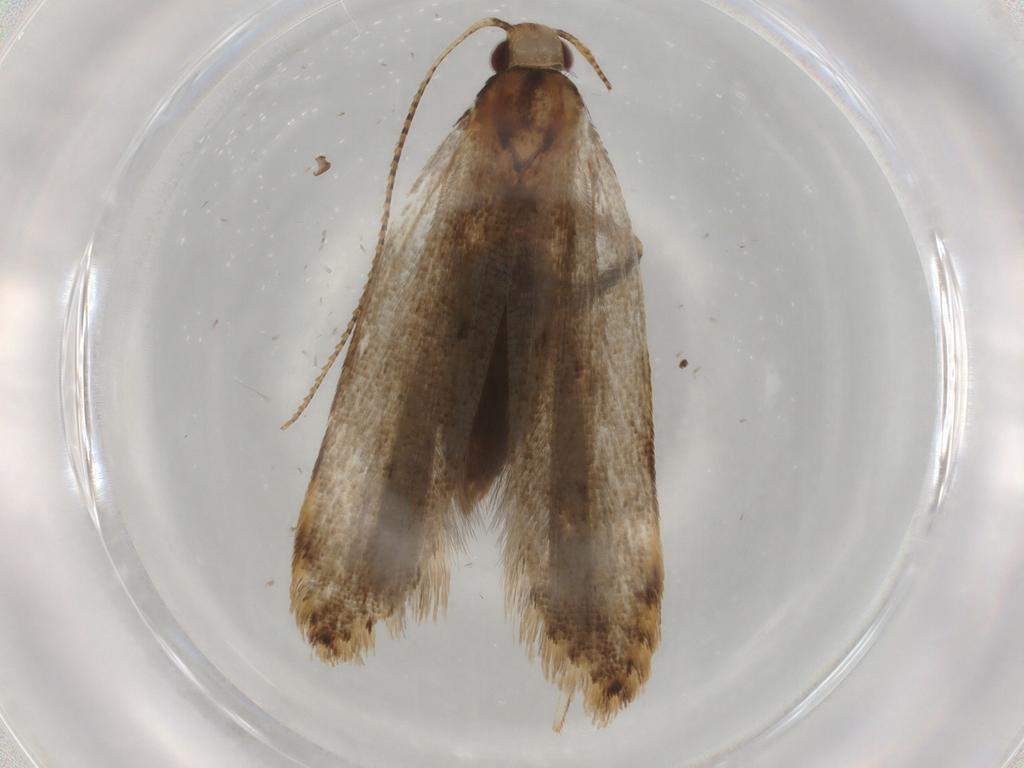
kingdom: Animalia
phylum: Arthropoda
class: Insecta
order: Lepidoptera
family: Gelechiidae
